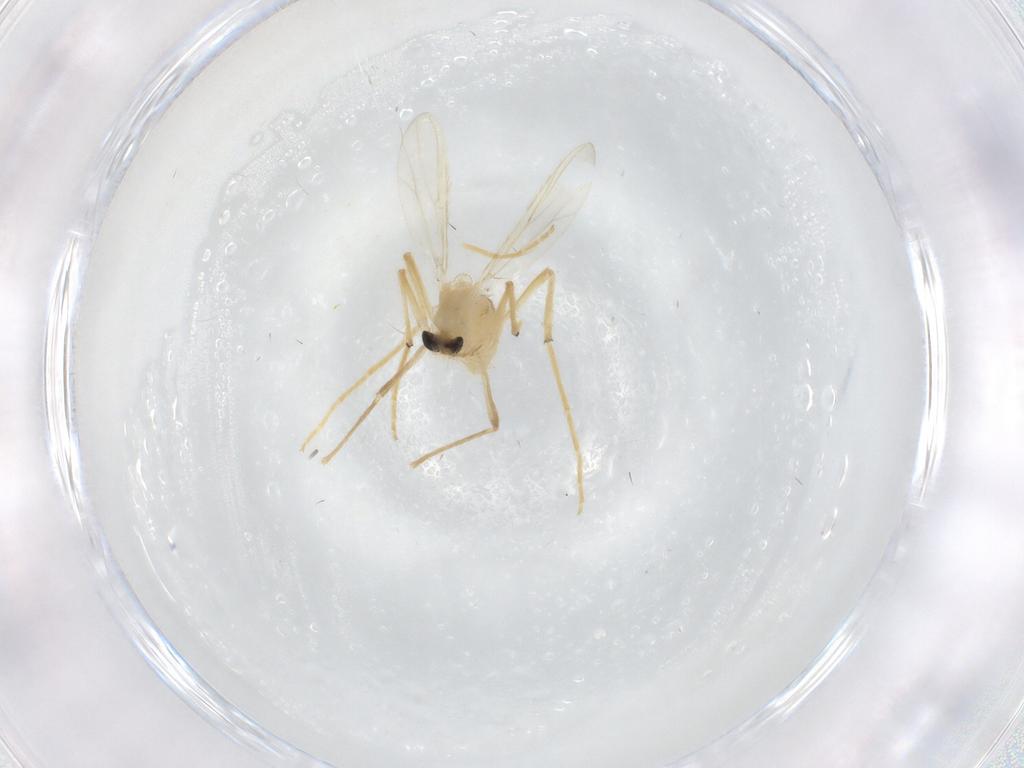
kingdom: Animalia
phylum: Arthropoda
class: Insecta
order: Diptera
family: Chironomidae
